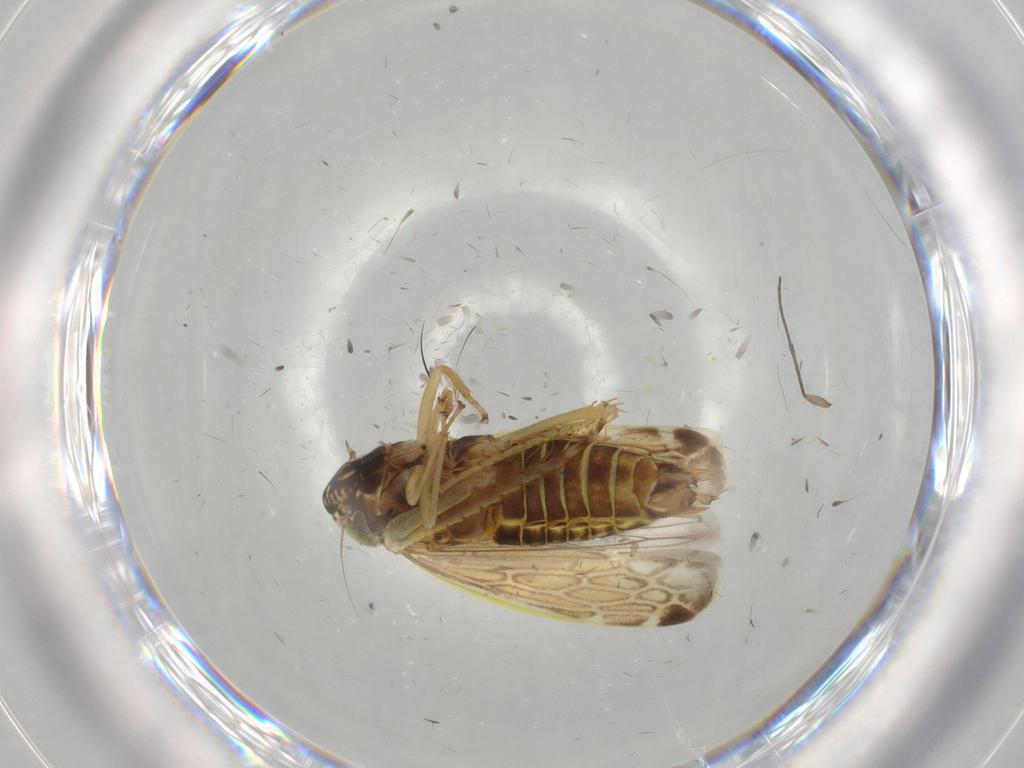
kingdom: Animalia
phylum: Arthropoda
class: Insecta
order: Hemiptera
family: Cicadellidae
